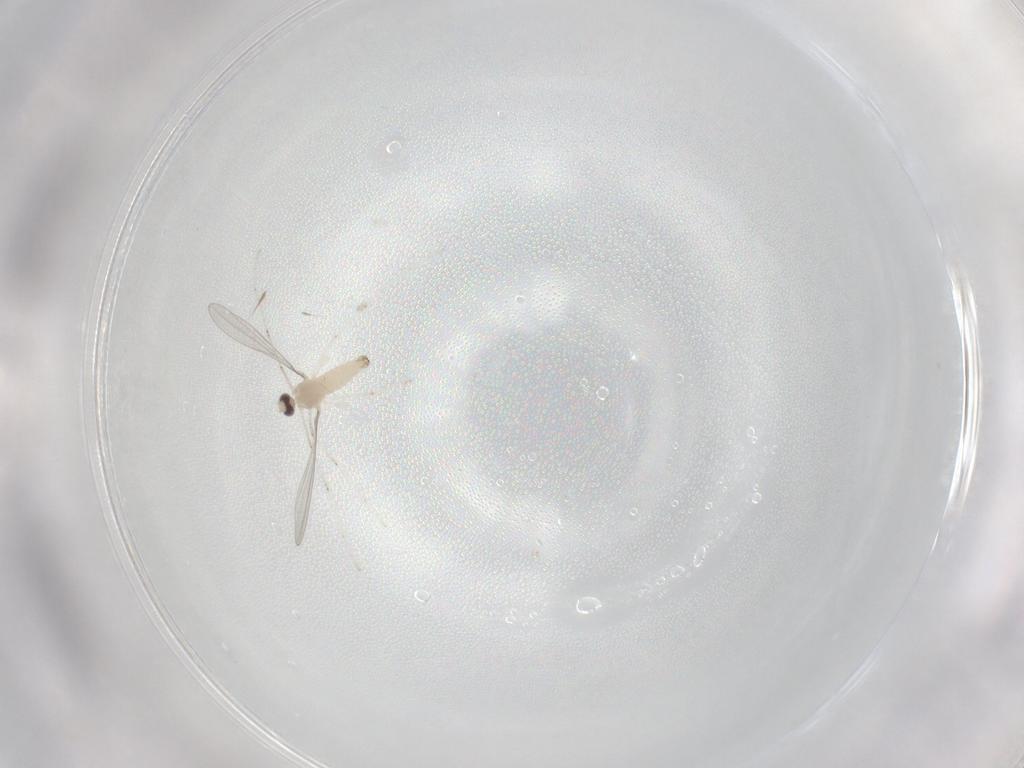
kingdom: Animalia
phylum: Arthropoda
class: Insecta
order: Diptera
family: Cecidomyiidae
